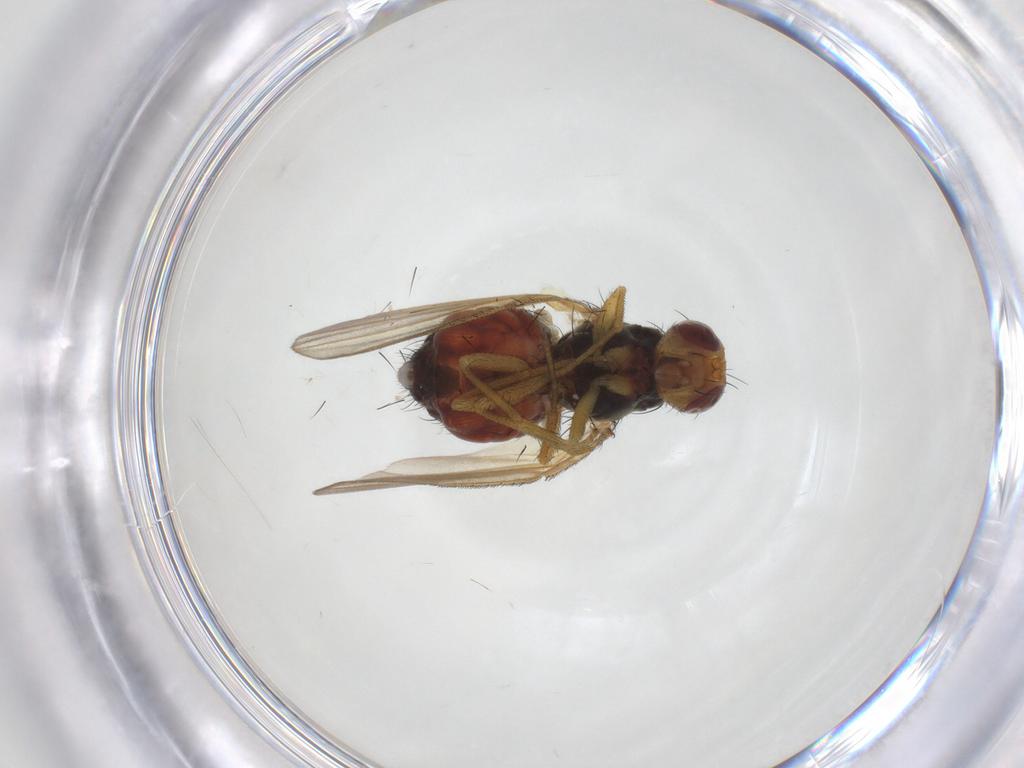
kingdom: Animalia
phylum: Arthropoda
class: Insecta
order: Diptera
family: Heleomyzidae
